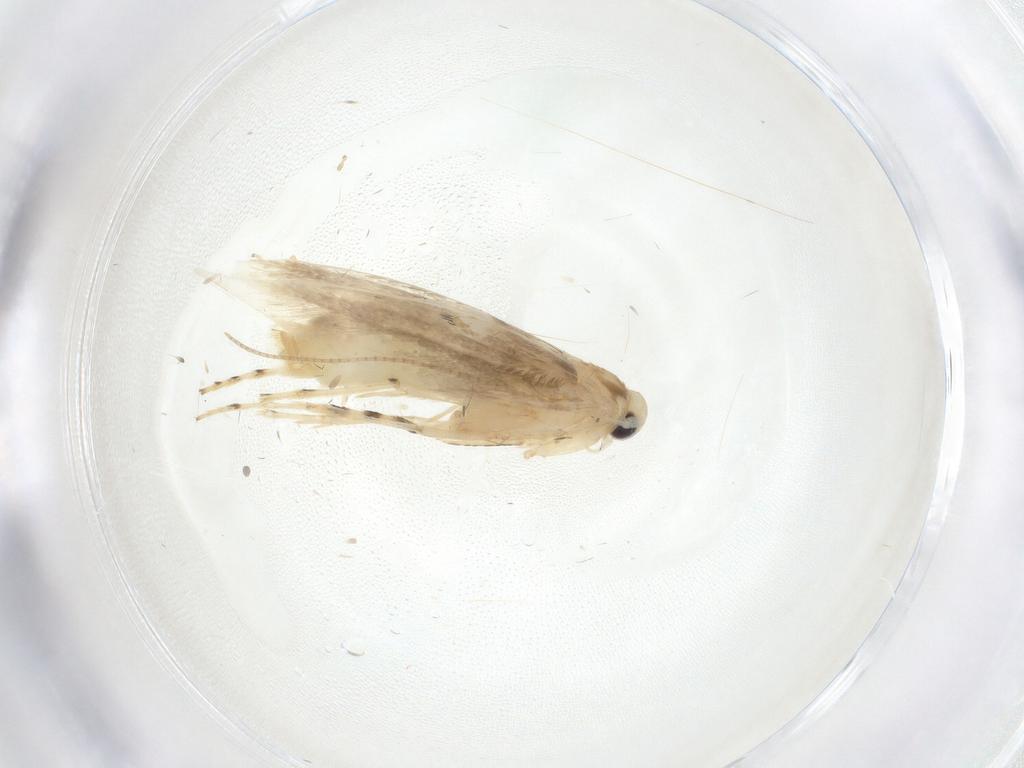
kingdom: Animalia
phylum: Arthropoda
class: Insecta
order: Lepidoptera
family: Gracillariidae
